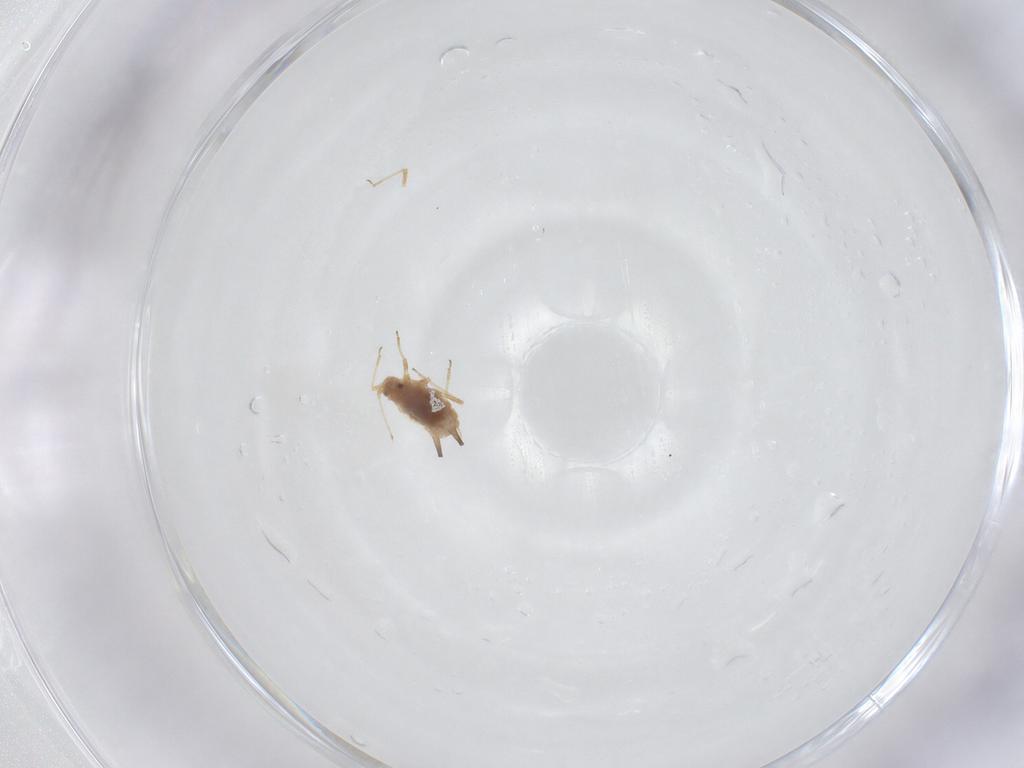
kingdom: Animalia
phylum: Arthropoda
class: Insecta
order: Hemiptera
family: Aphididae
